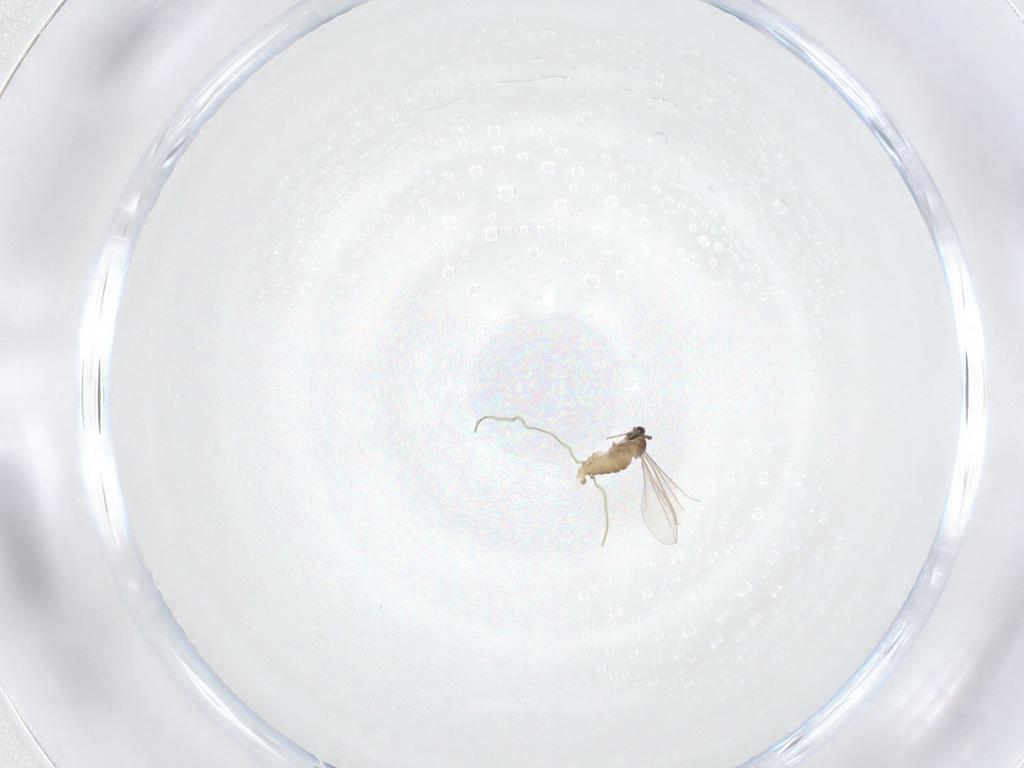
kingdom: Animalia
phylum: Arthropoda
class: Insecta
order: Diptera
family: Cecidomyiidae
